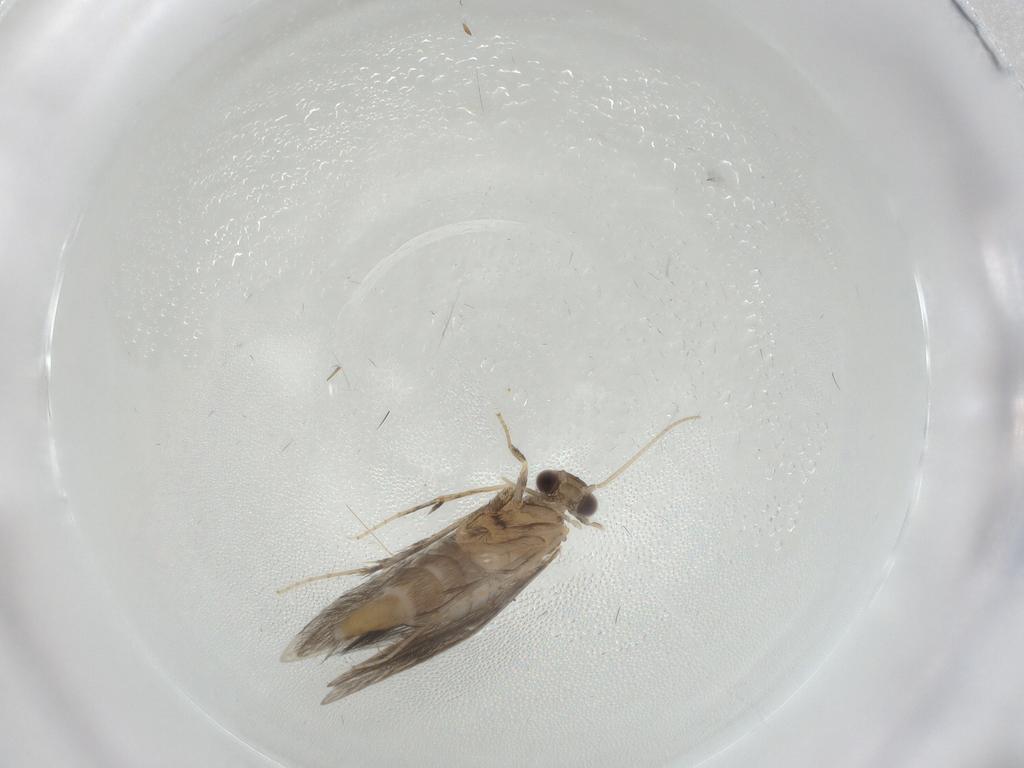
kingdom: Animalia
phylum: Arthropoda
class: Insecta
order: Trichoptera
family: Hydroptilidae
